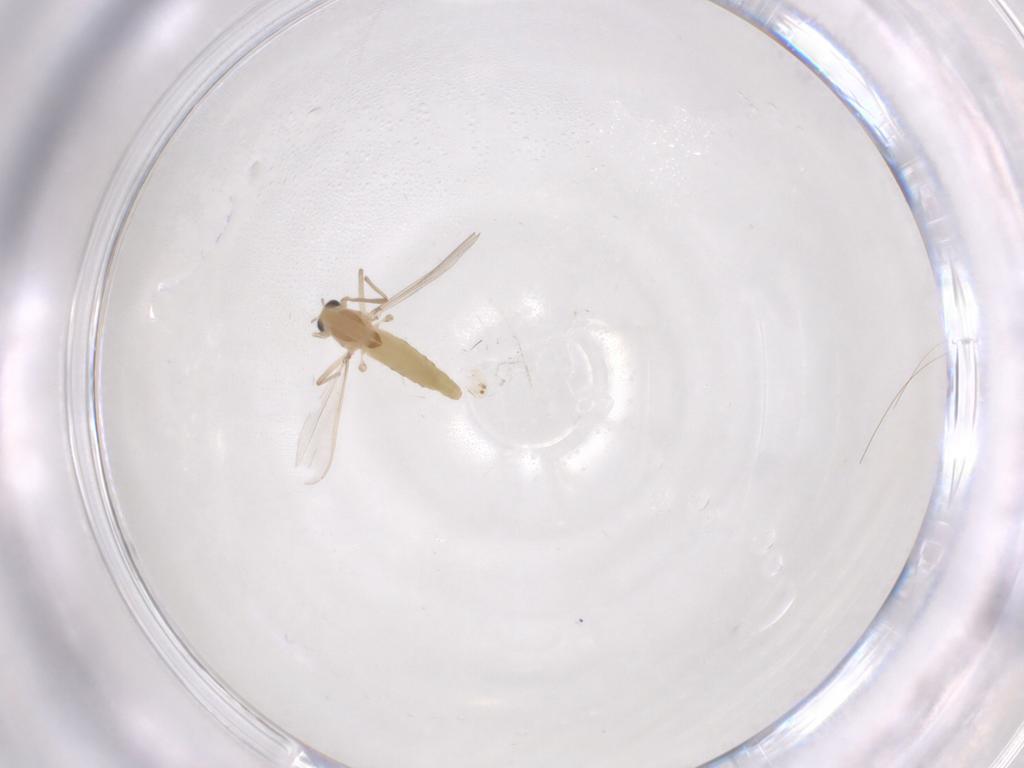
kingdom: Animalia
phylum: Arthropoda
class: Insecta
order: Diptera
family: Chironomidae
